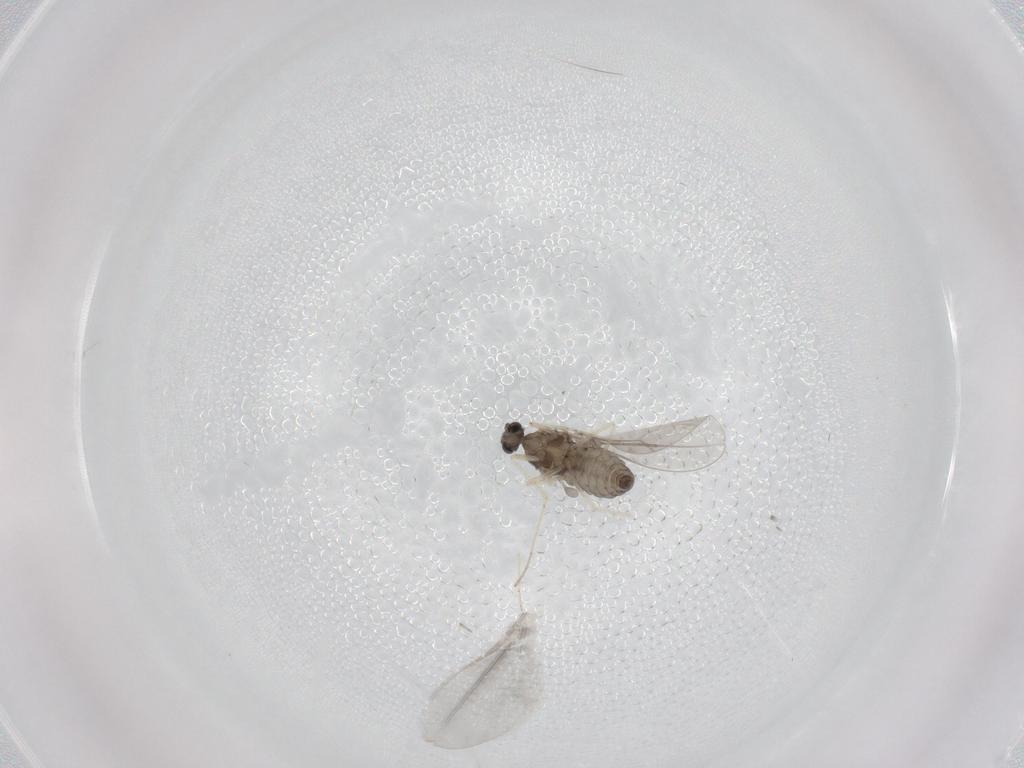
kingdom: Animalia
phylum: Arthropoda
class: Insecta
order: Diptera
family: Cecidomyiidae
